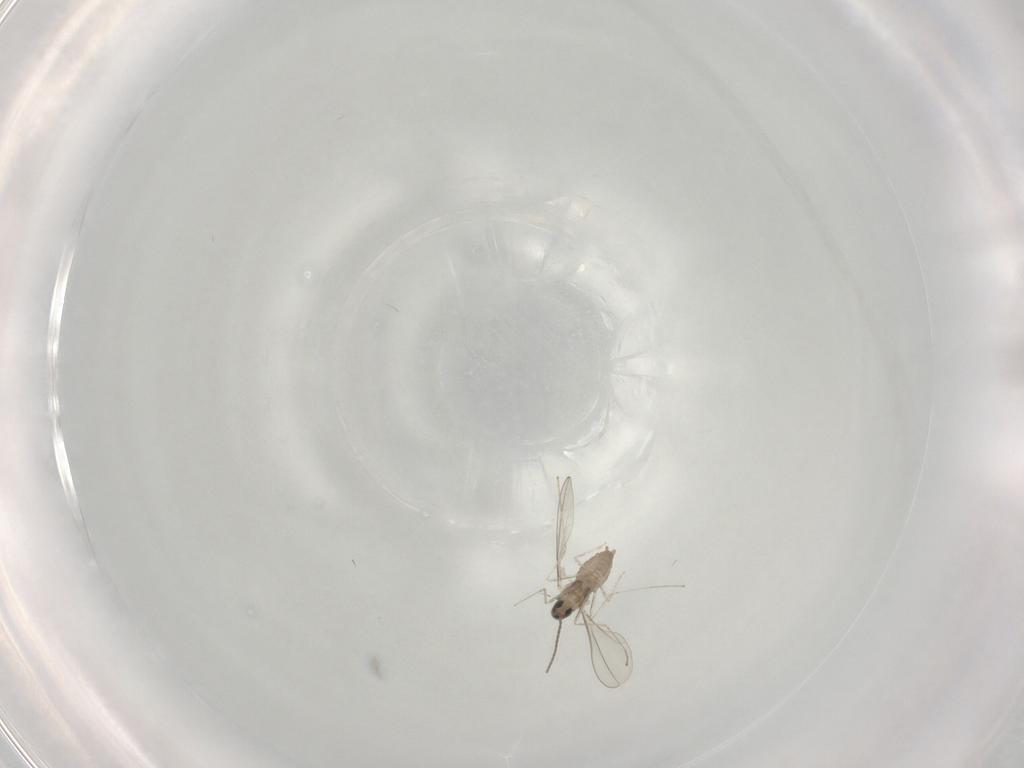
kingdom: Animalia
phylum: Arthropoda
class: Insecta
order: Diptera
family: Cecidomyiidae
